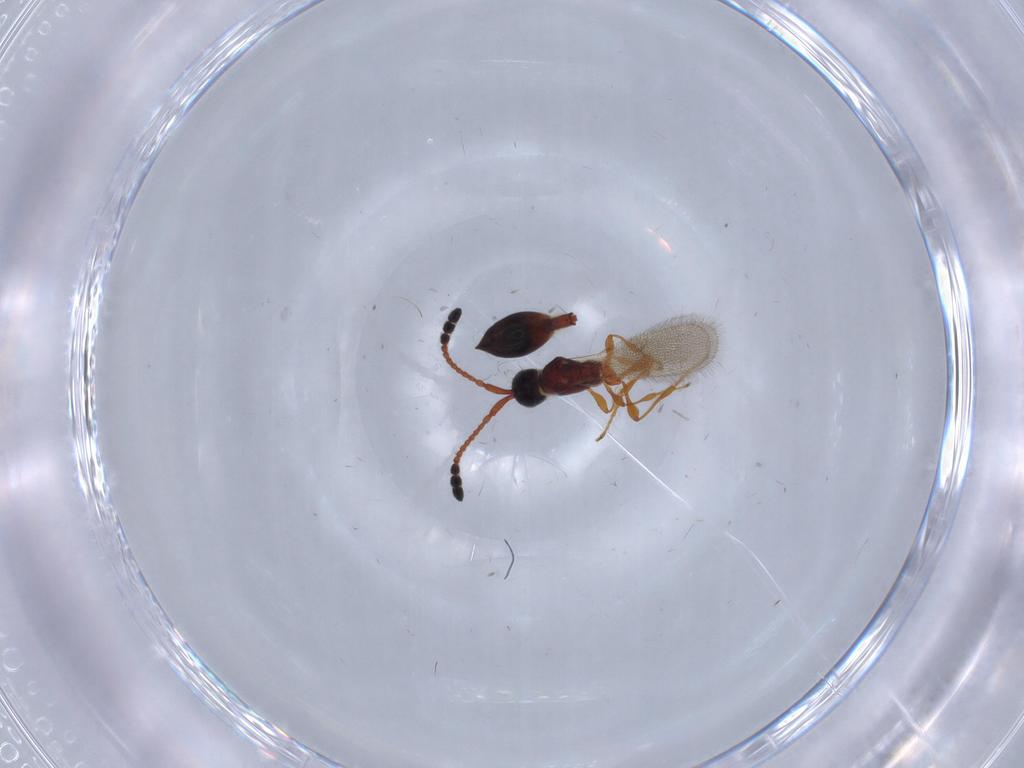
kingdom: Animalia
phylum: Arthropoda
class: Insecta
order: Hymenoptera
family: Diapriidae
